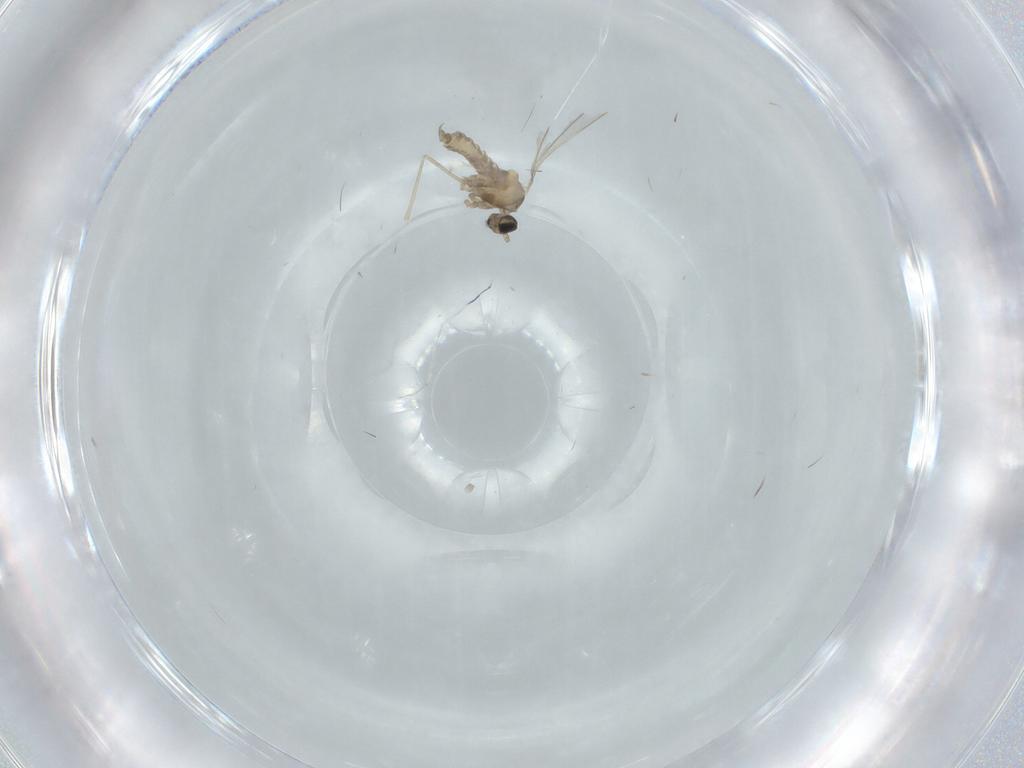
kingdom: Animalia
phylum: Arthropoda
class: Insecta
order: Diptera
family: Cecidomyiidae
